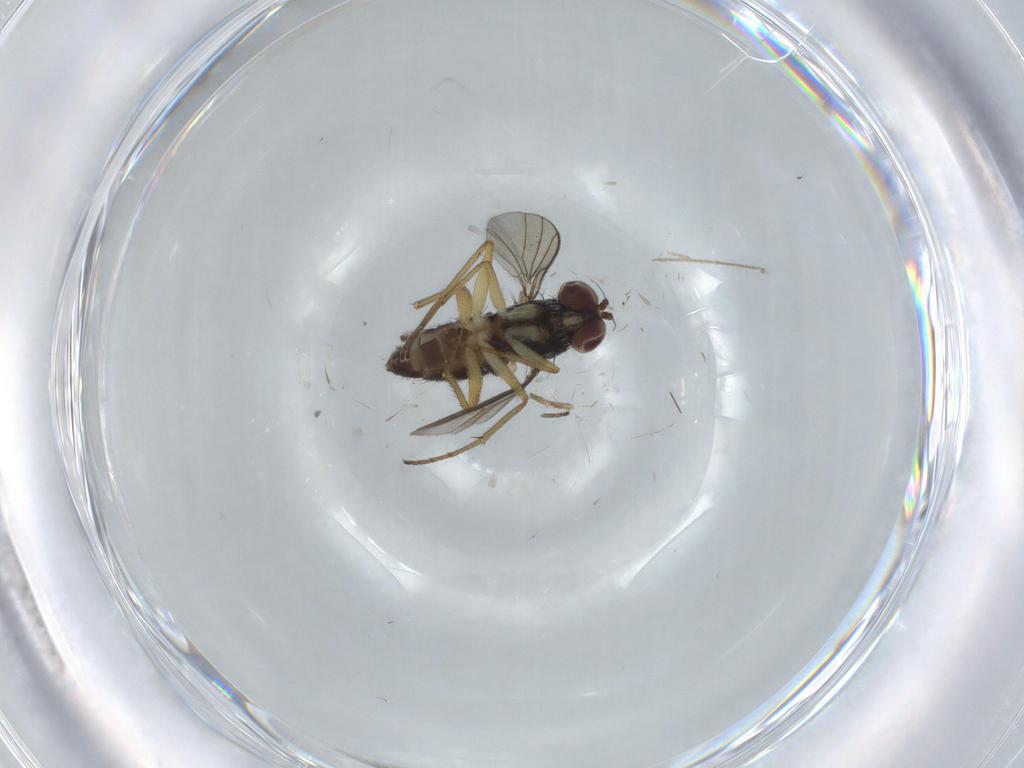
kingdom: Animalia
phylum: Arthropoda
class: Insecta
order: Diptera
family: Dolichopodidae
